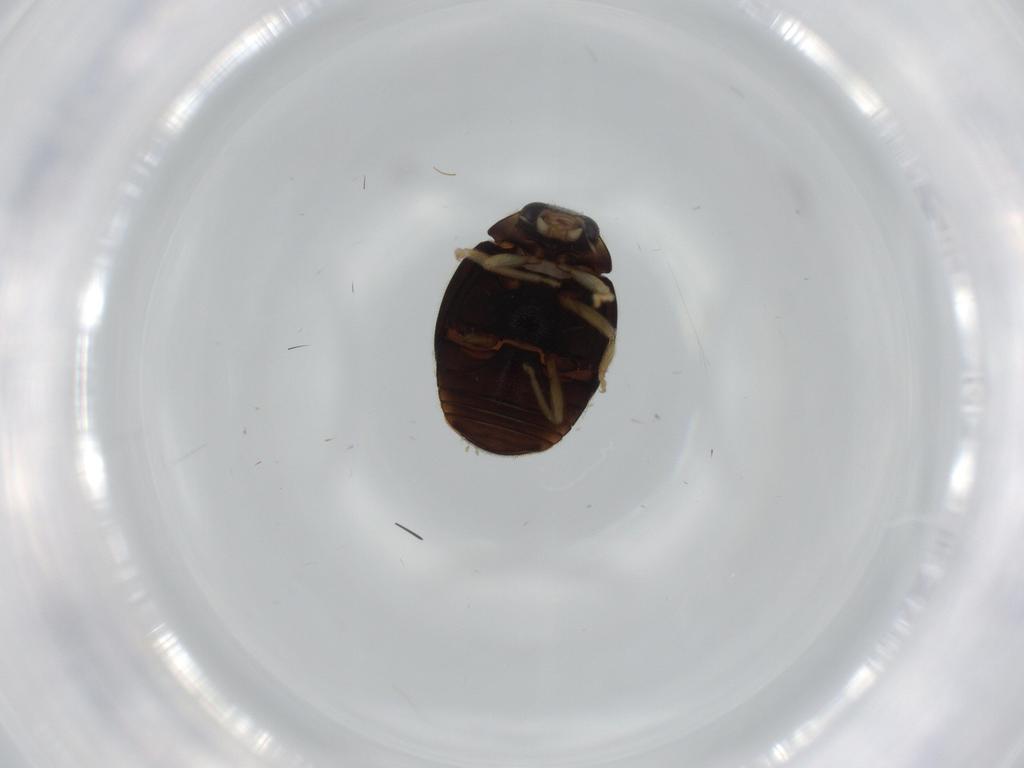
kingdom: Animalia
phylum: Arthropoda
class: Insecta
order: Coleoptera
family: Coccinellidae
